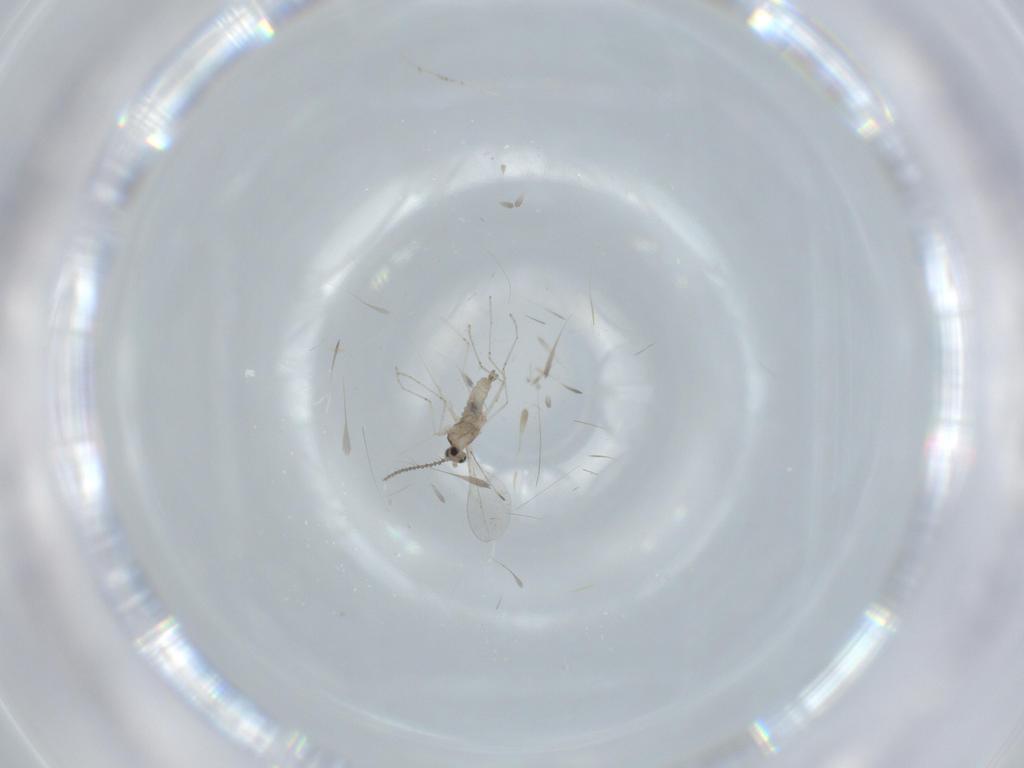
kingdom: Animalia
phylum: Arthropoda
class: Insecta
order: Diptera
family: Cecidomyiidae
